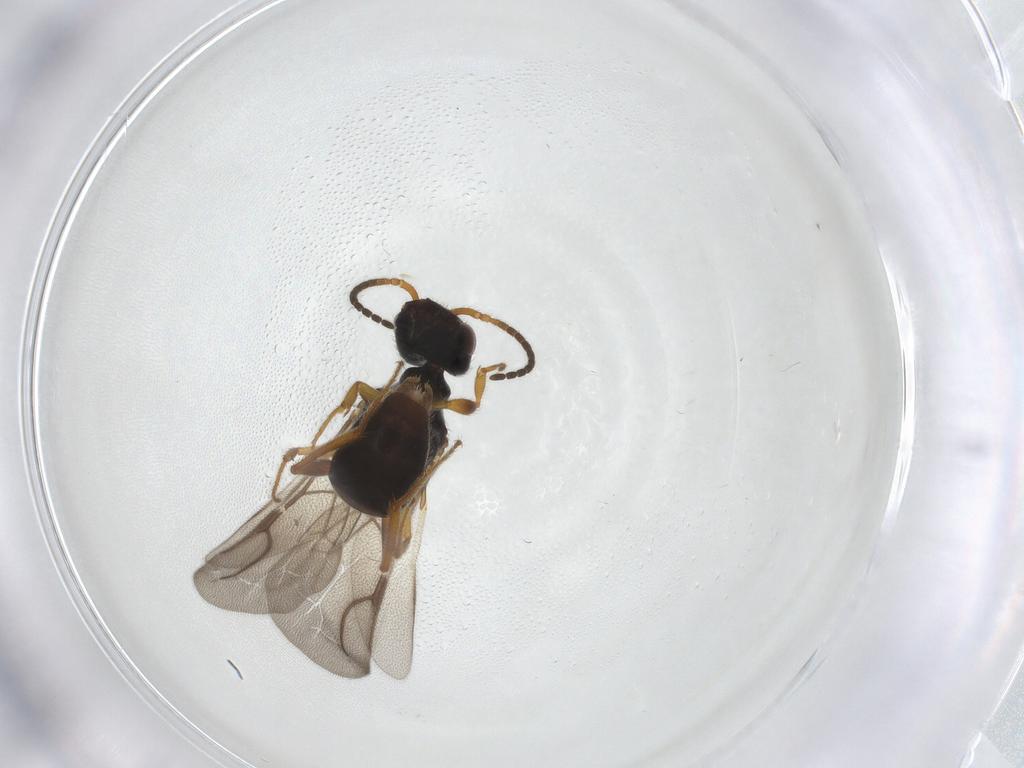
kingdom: Animalia
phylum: Arthropoda
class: Insecta
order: Hymenoptera
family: Bethylidae
